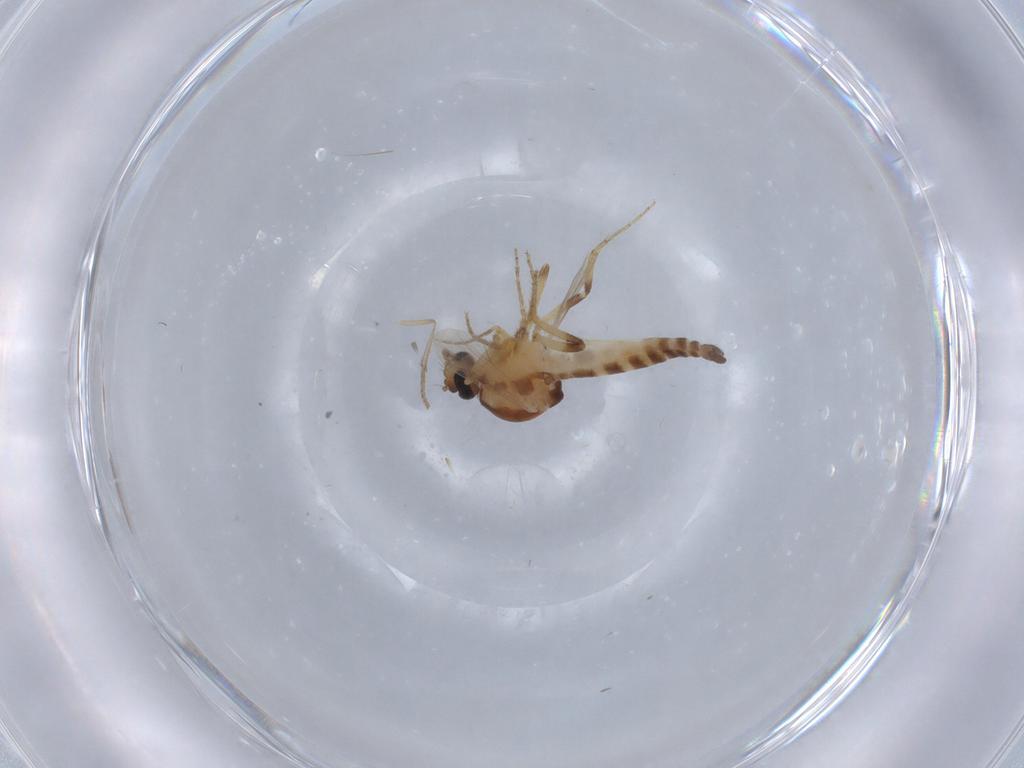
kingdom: Animalia
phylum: Arthropoda
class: Insecta
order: Diptera
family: Ceratopogonidae
